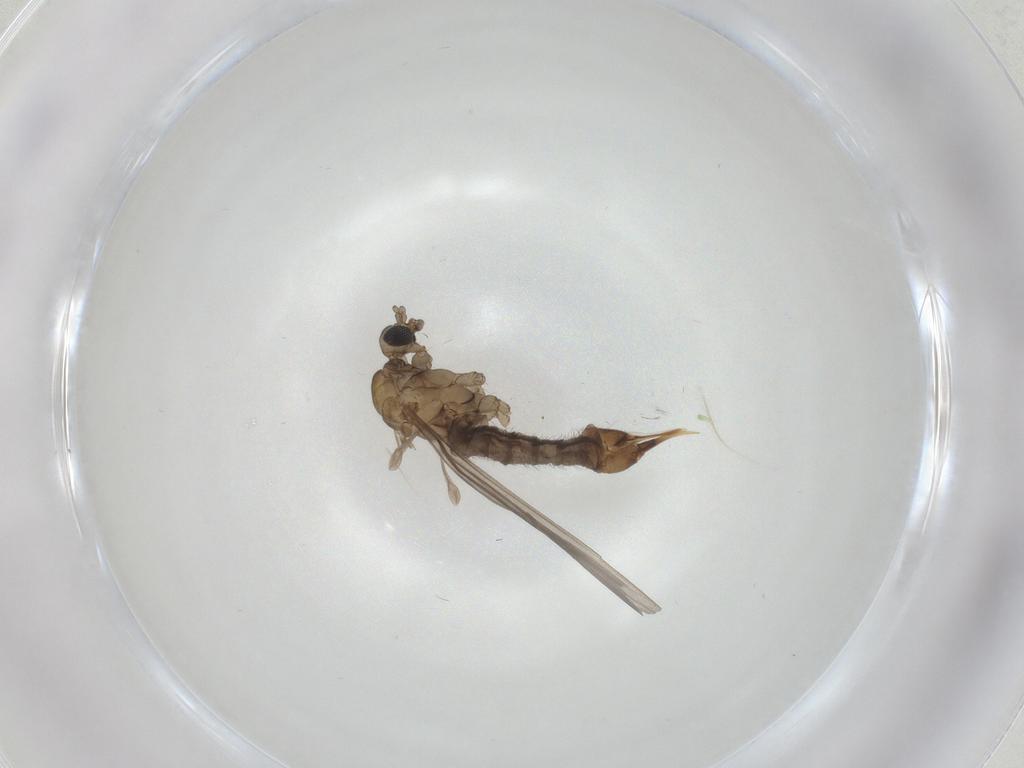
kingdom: Animalia
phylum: Arthropoda
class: Insecta
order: Diptera
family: Limoniidae
